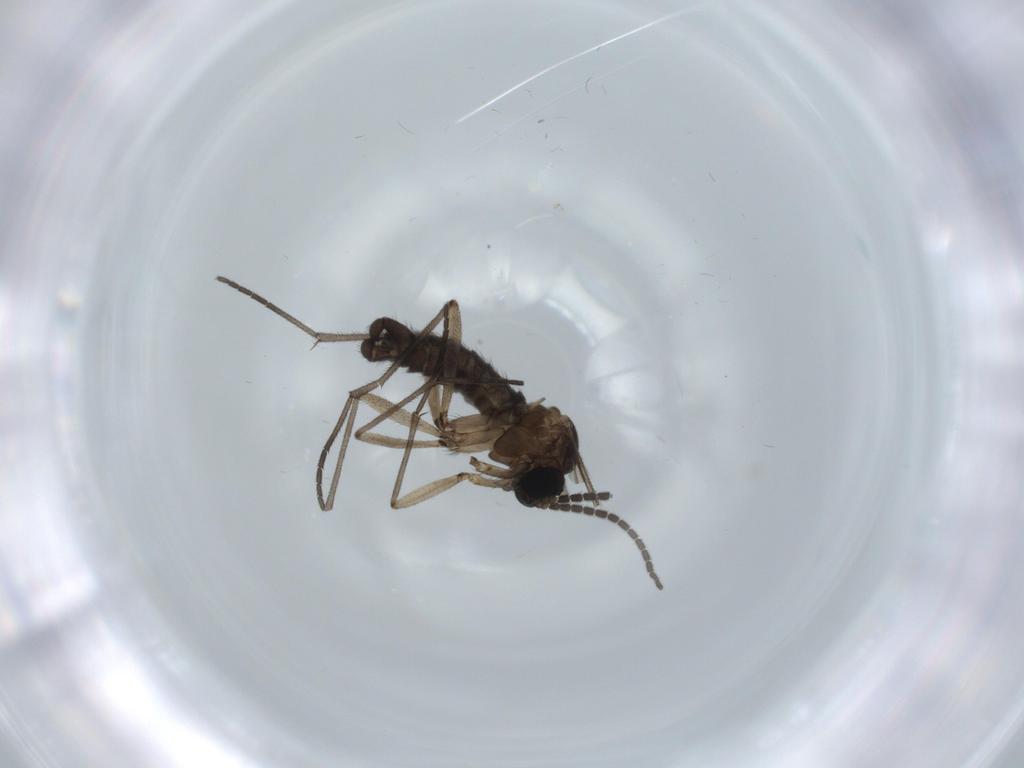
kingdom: Animalia
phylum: Arthropoda
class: Insecta
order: Diptera
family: Sciaridae
